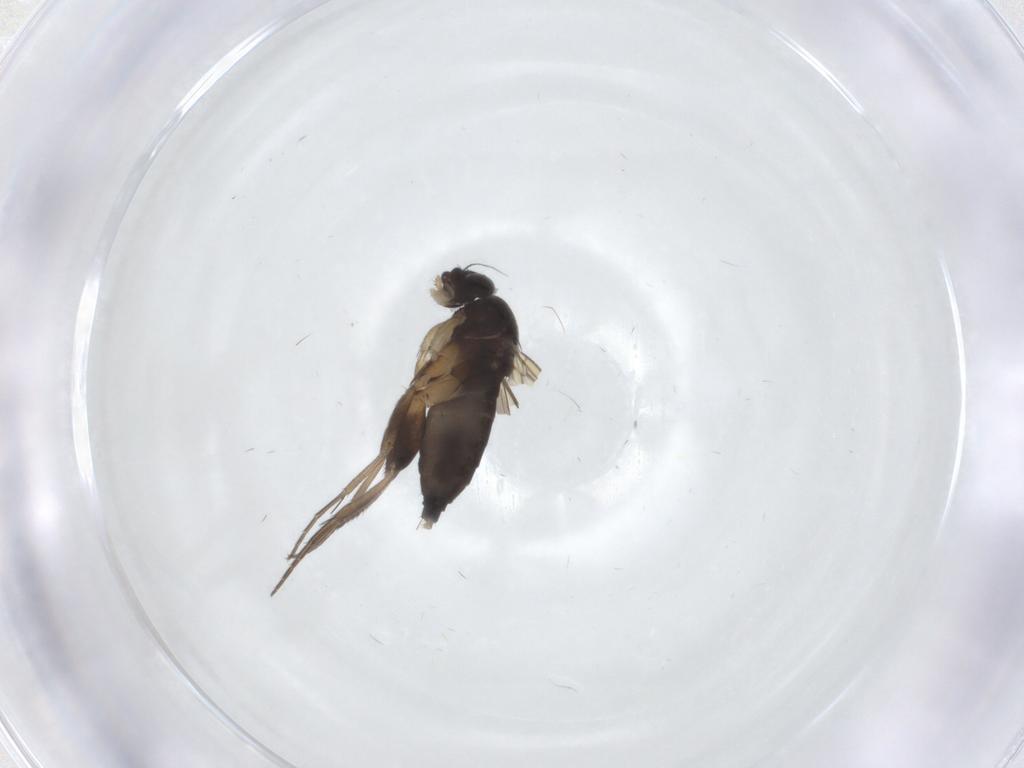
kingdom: Animalia
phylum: Arthropoda
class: Insecta
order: Diptera
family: Phoridae
